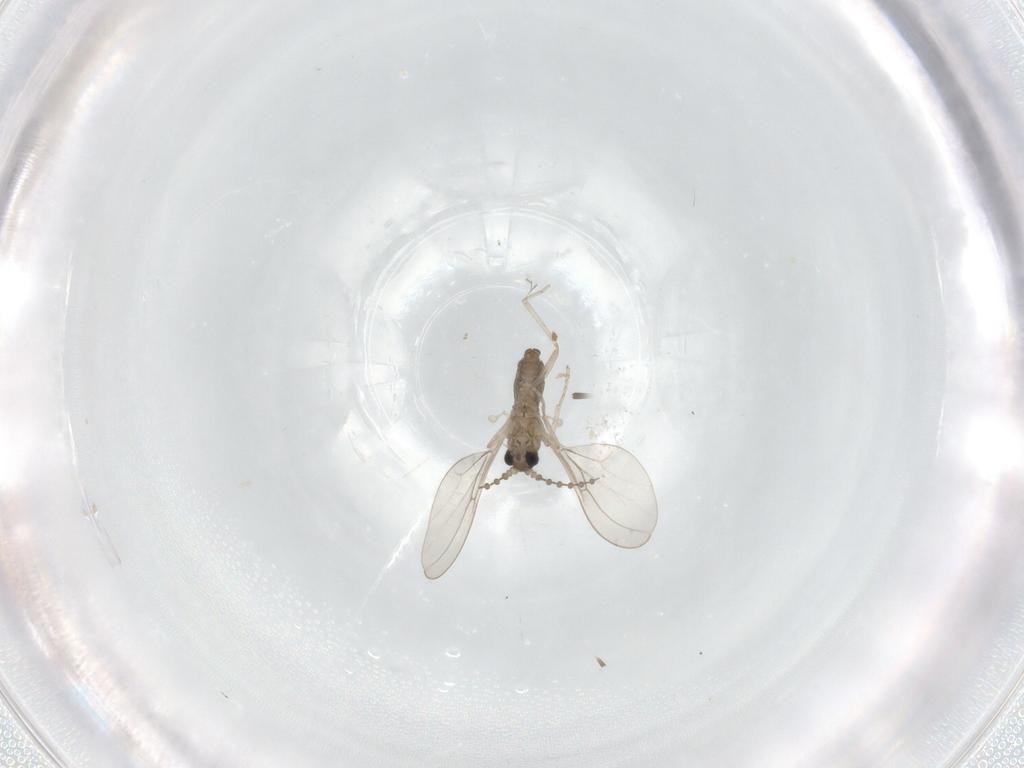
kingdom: Animalia
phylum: Arthropoda
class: Insecta
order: Diptera
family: Cecidomyiidae
